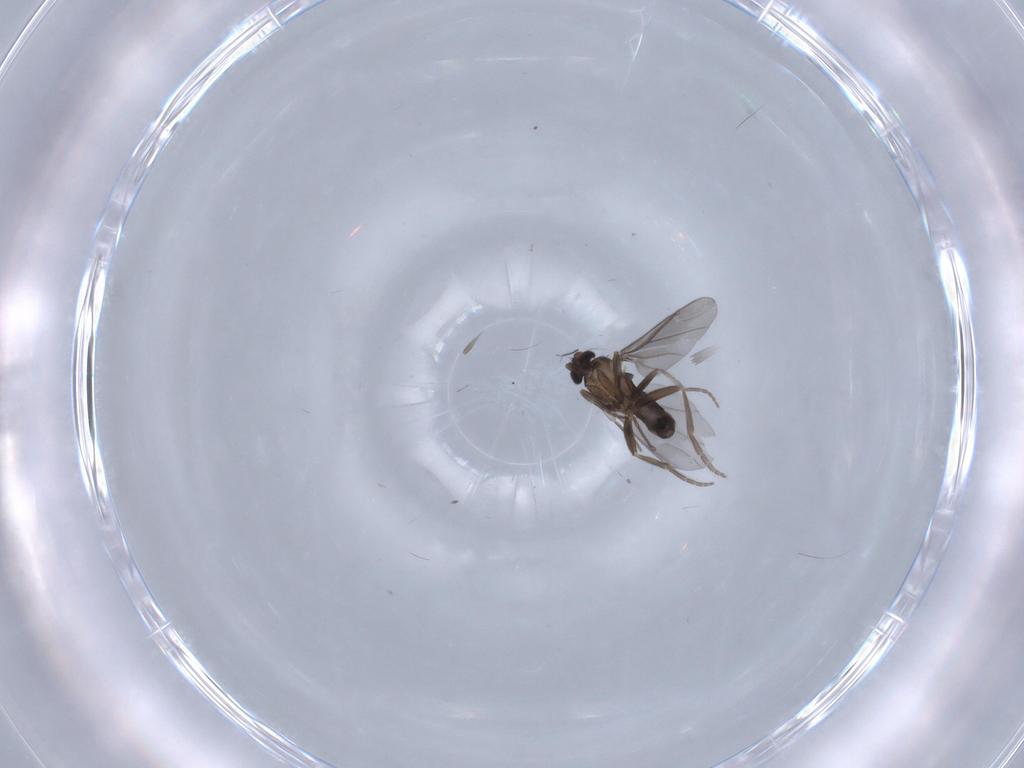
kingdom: Animalia
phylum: Arthropoda
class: Insecta
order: Diptera
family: Phoridae
